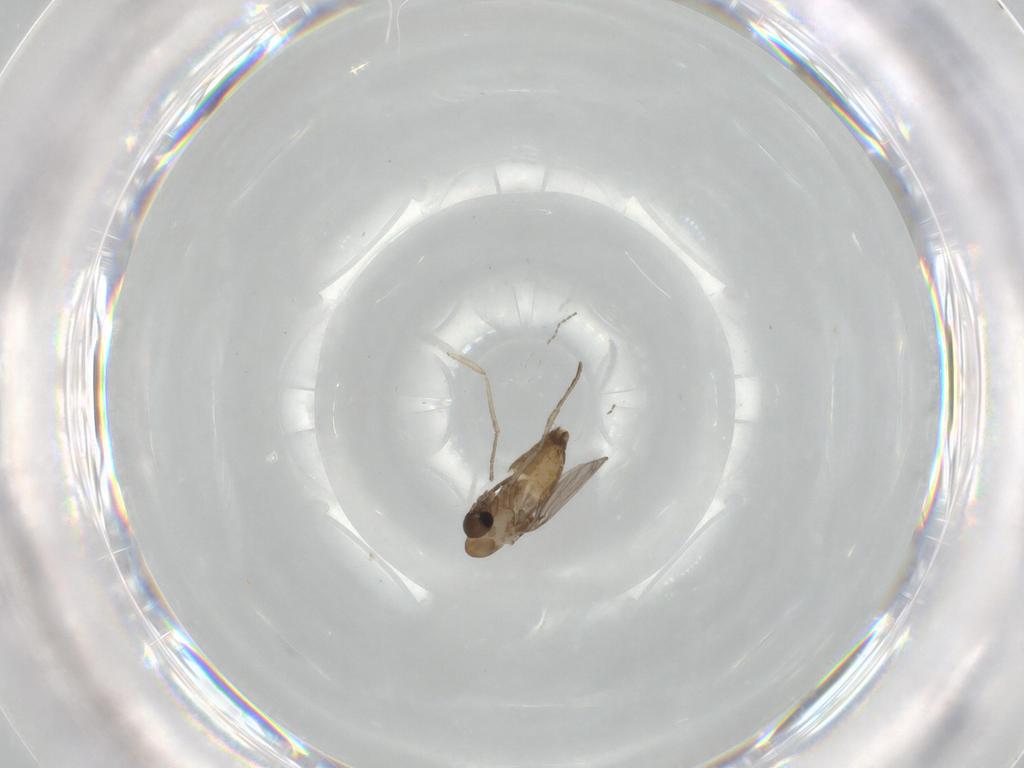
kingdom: Animalia
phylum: Arthropoda
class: Insecta
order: Diptera
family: Psychodidae
